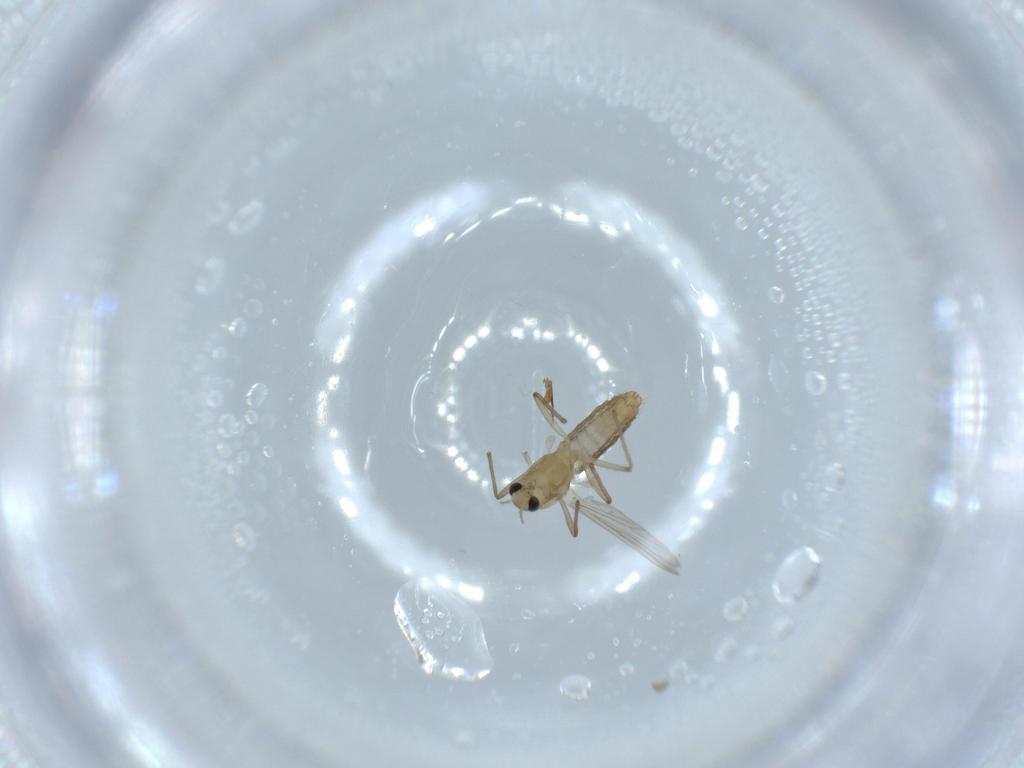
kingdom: Animalia
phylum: Arthropoda
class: Insecta
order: Diptera
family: Chironomidae
